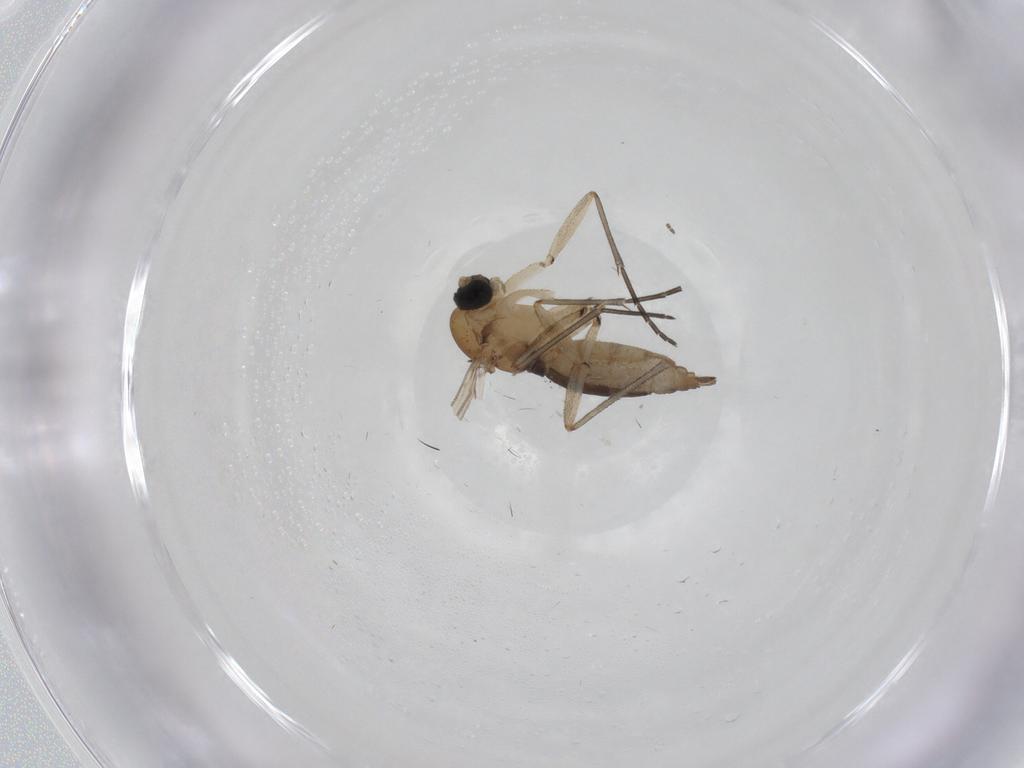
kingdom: Animalia
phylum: Arthropoda
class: Insecta
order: Diptera
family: Sciaridae
